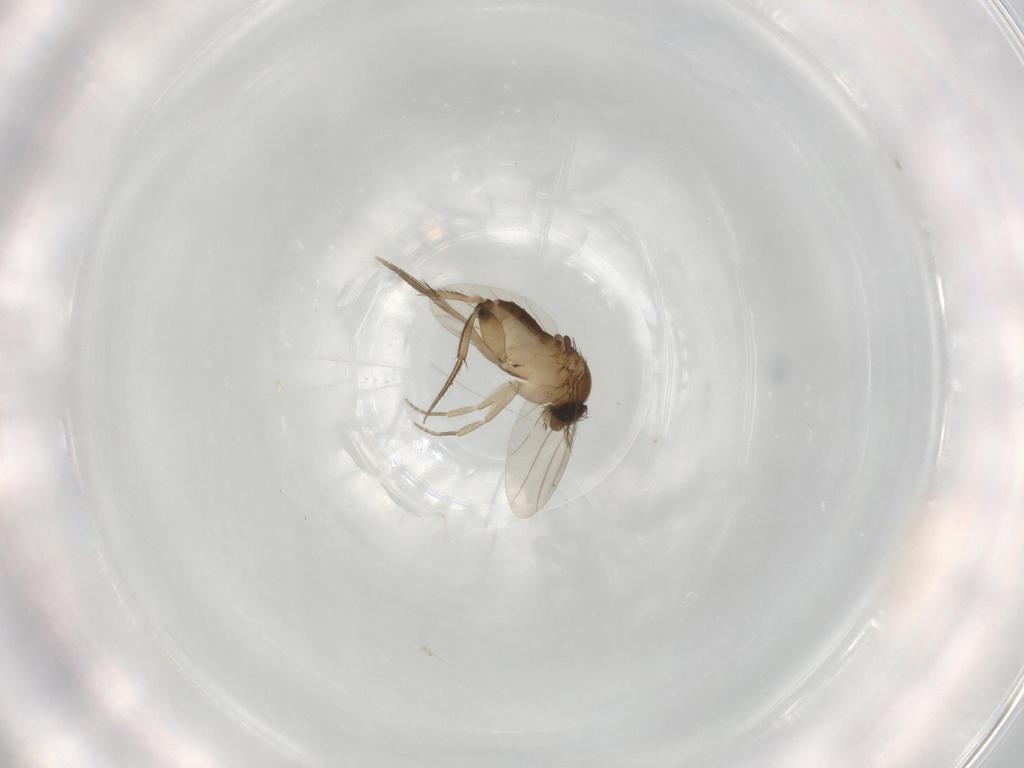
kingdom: Animalia
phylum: Arthropoda
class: Insecta
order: Diptera
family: Phoridae
